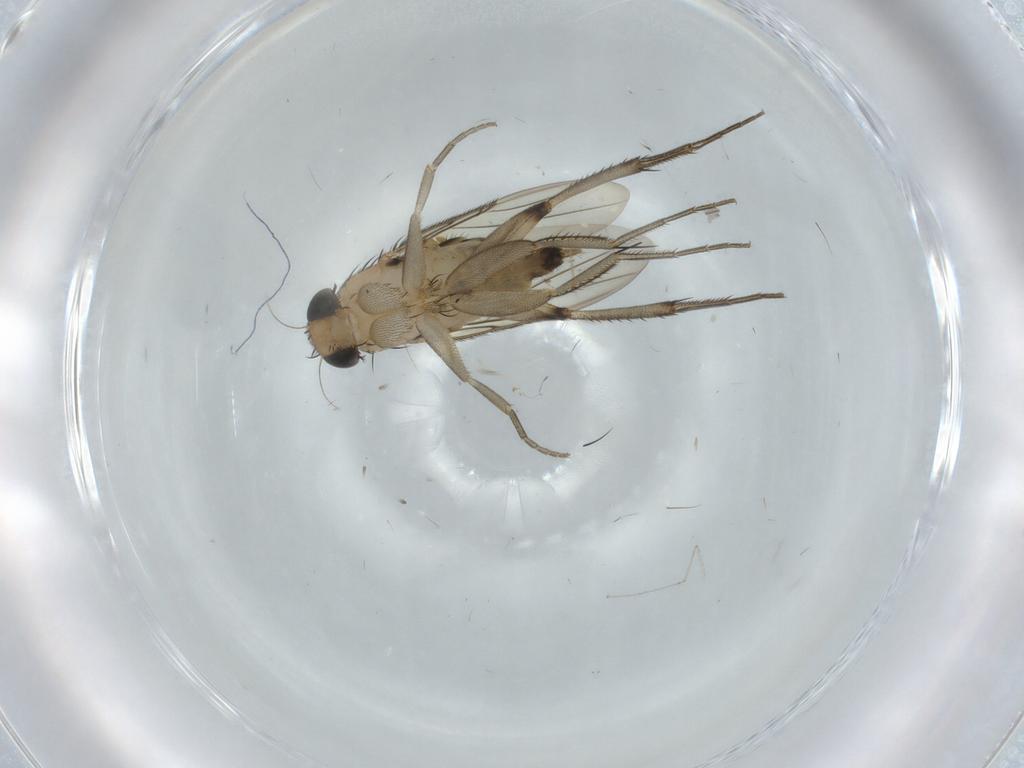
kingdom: Animalia
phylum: Arthropoda
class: Insecta
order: Diptera
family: Phoridae
